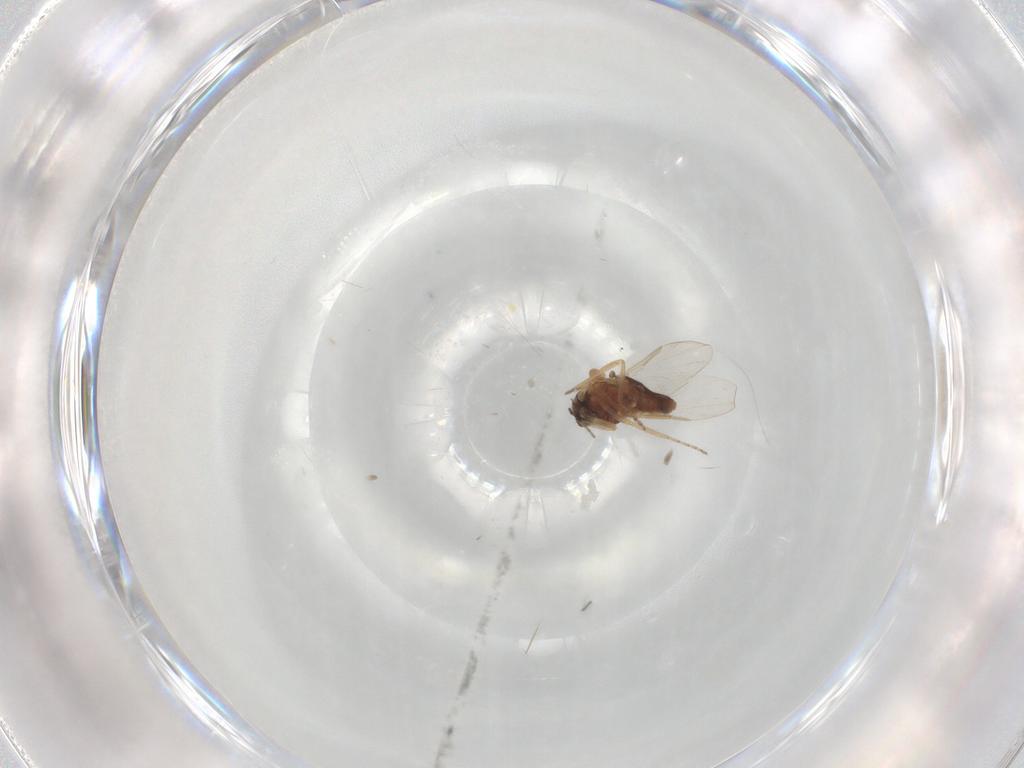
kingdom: Animalia
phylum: Arthropoda
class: Insecta
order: Diptera
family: Ceratopogonidae
